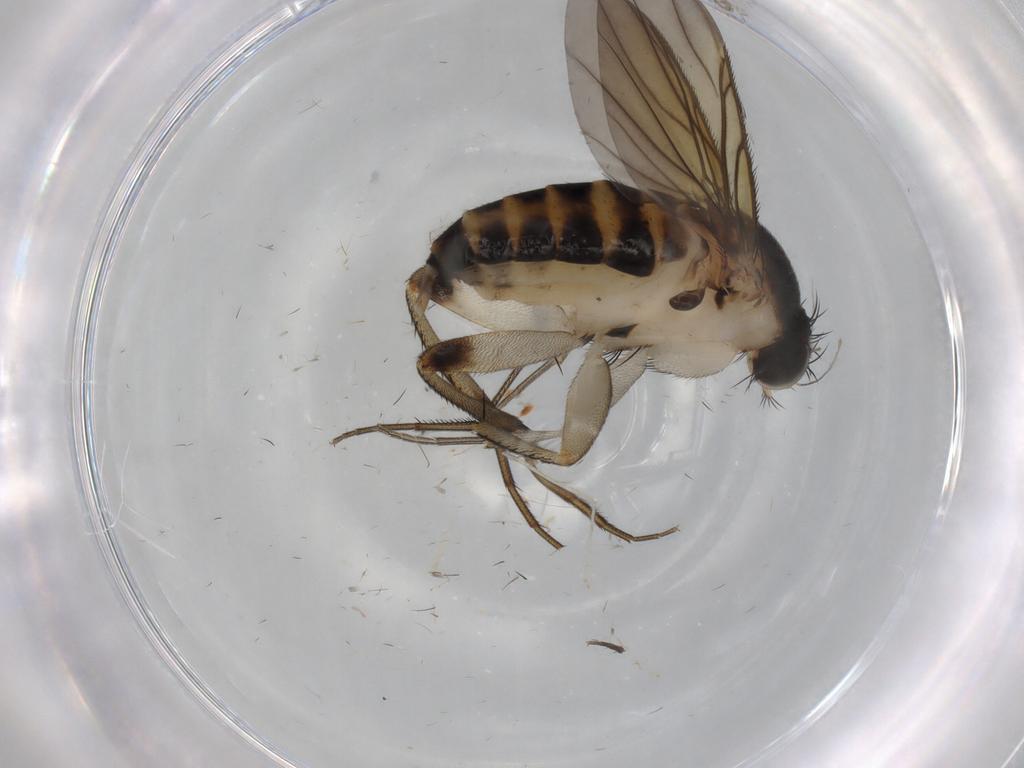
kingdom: Animalia
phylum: Arthropoda
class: Insecta
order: Diptera
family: Phoridae
